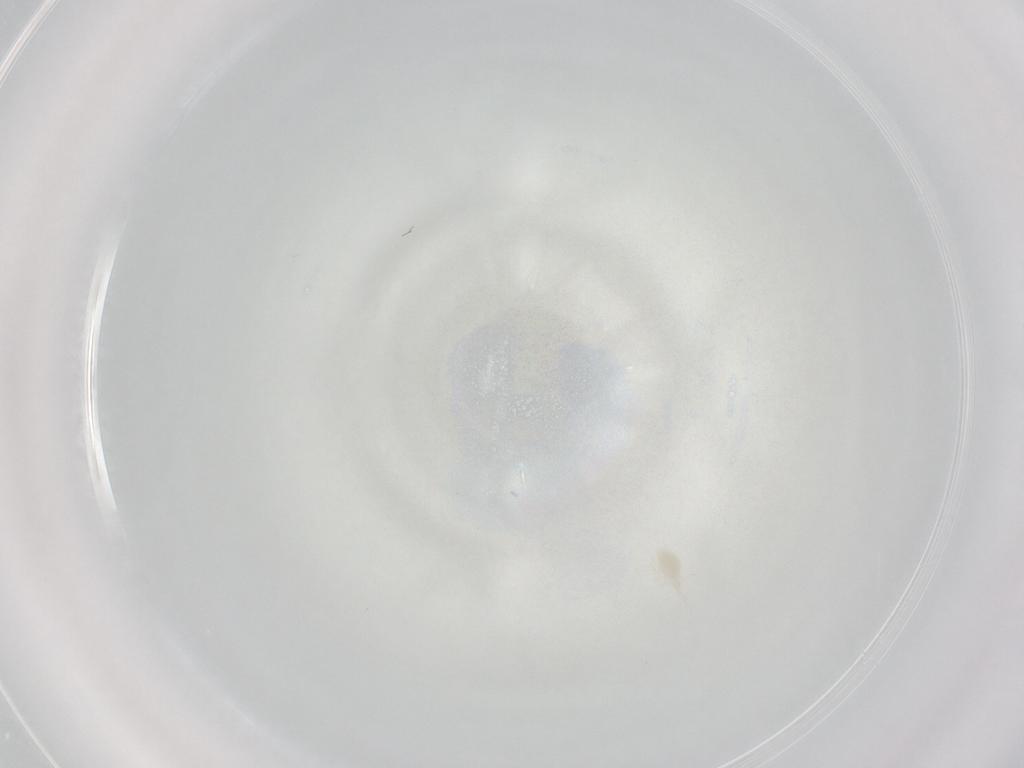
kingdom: Animalia
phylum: Arthropoda
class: Arachnida
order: Trombidiformes
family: Cunaxidae
